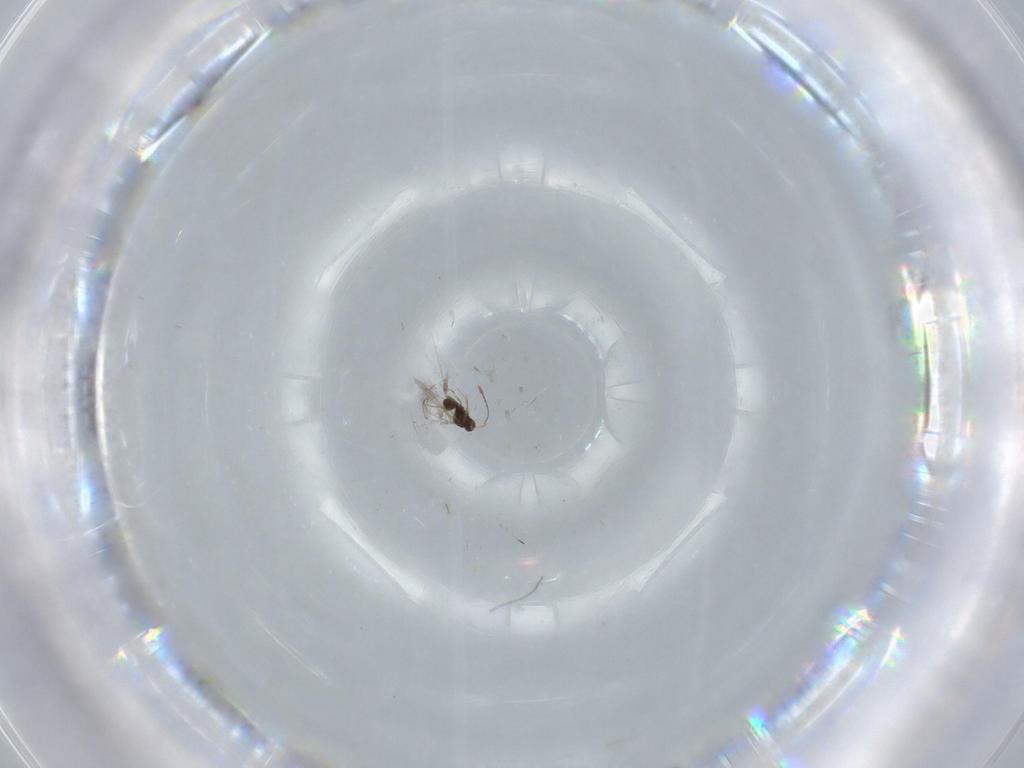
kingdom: Animalia
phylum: Arthropoda
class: Insecta
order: Hymenoptera
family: Mymaridae
